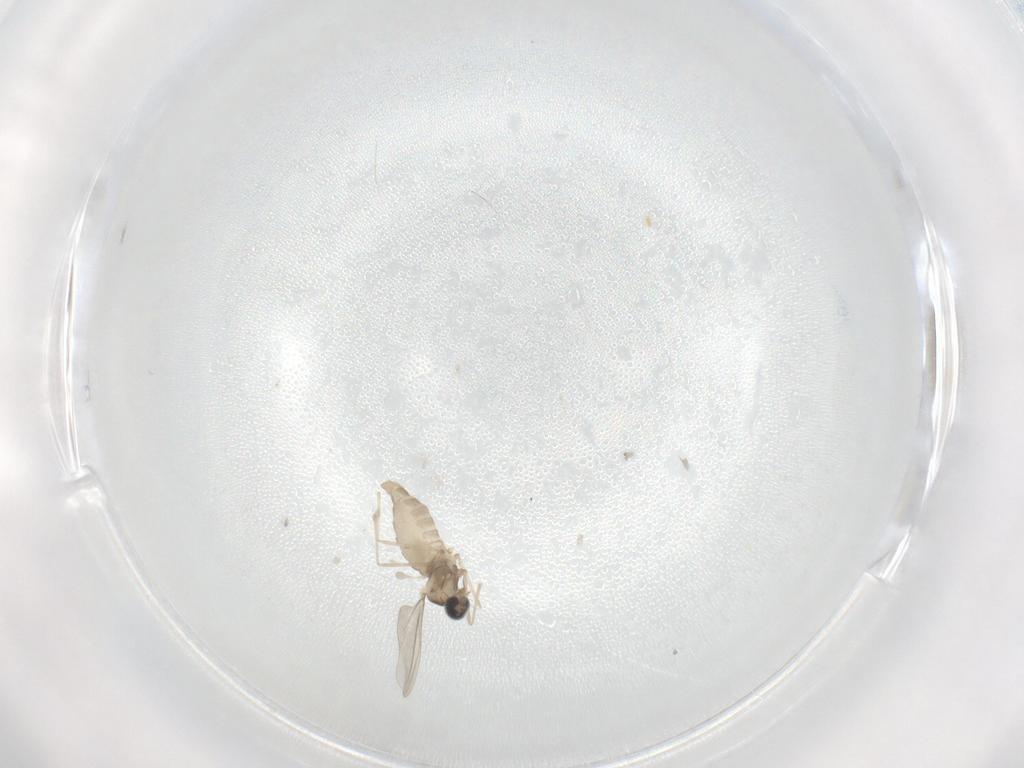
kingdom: Animalia
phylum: Arthropoda
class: Insecta
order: Diptera
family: Cecidomyiidae
